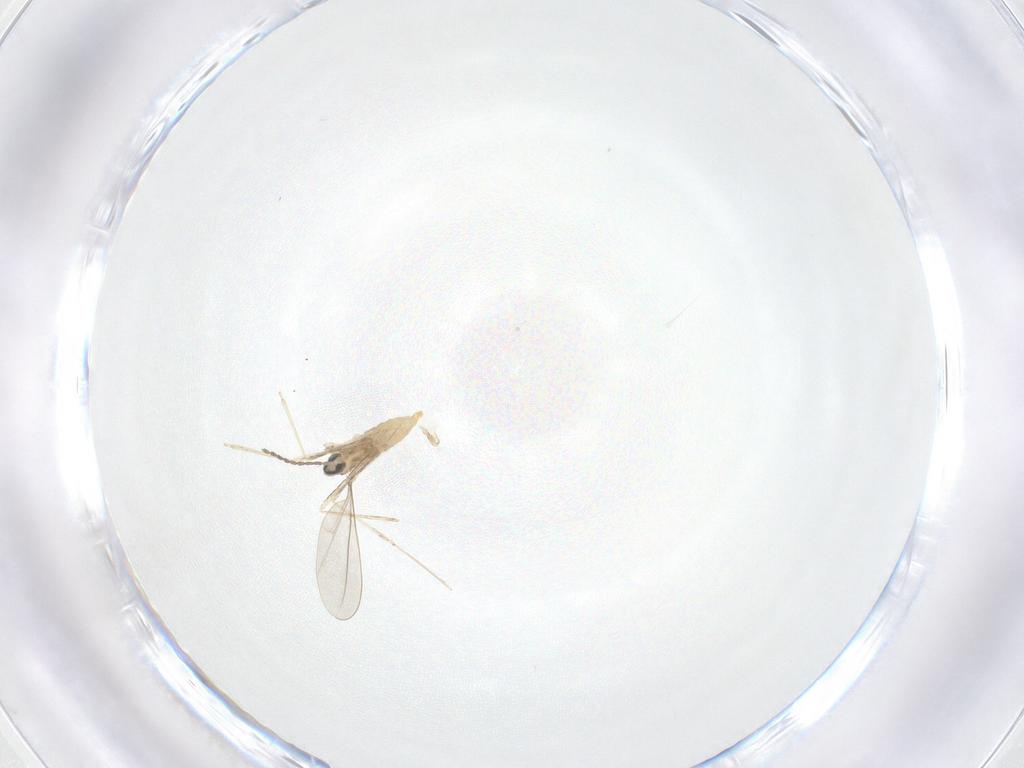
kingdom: Animalia
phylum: Arthropoda
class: Insecta
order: Diptera
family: Cecidomyiidae
